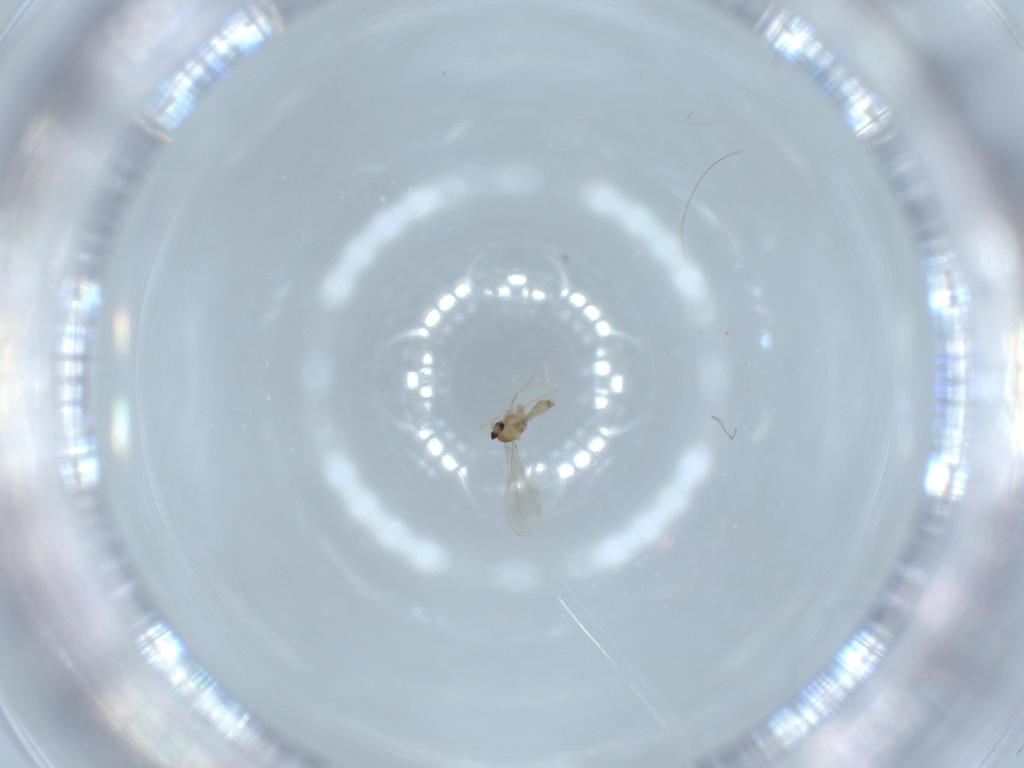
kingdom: Animalia
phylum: Arthropoda
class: Insecta
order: Diptera
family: Cecidomyiidae
